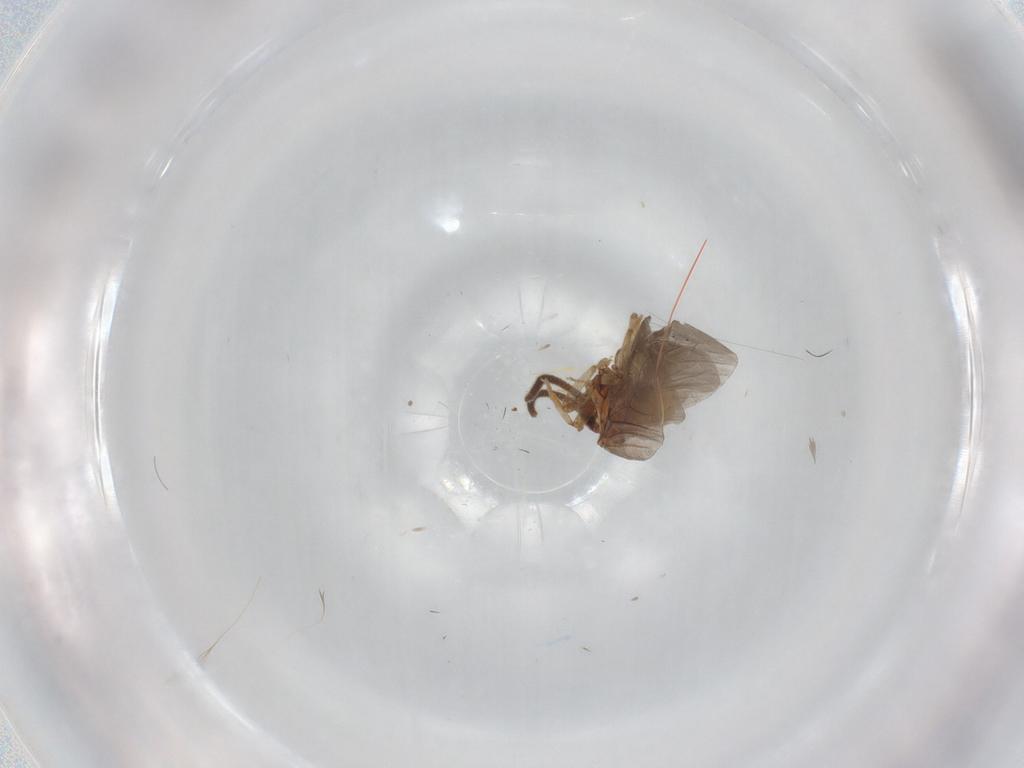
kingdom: Animalia
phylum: Arthropoda
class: Insecta
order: Neuroptera
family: Coniopterygidae
